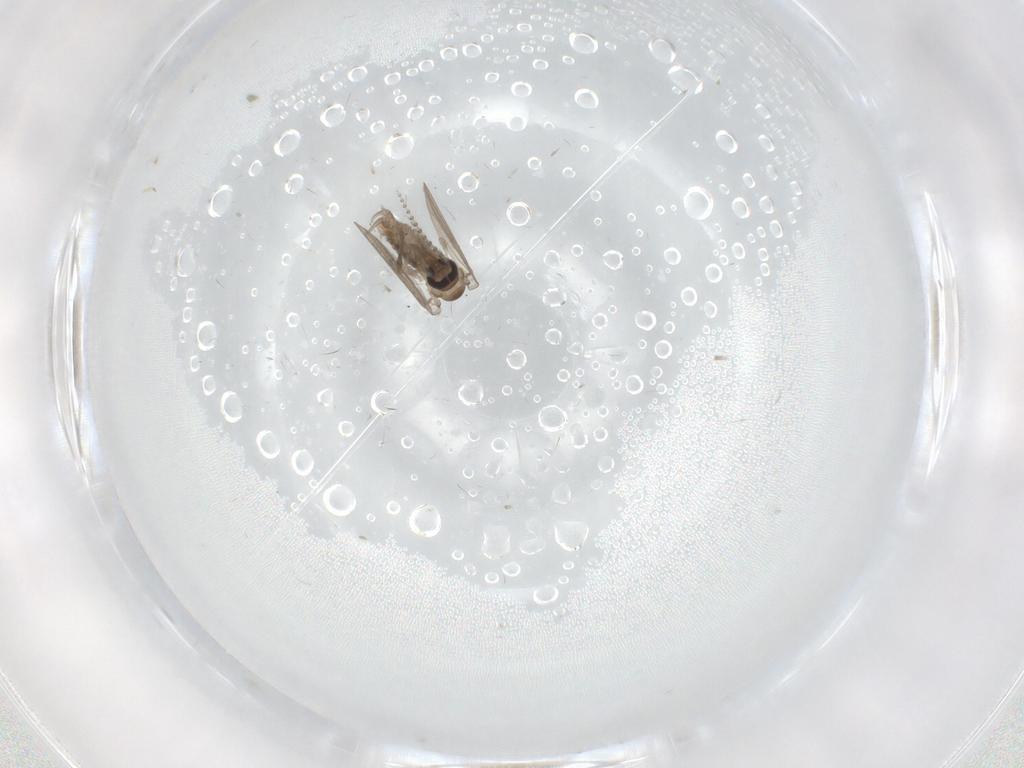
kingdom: Animalia
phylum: Arthropoda
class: Insecta
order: Diptera
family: Psychodidae
